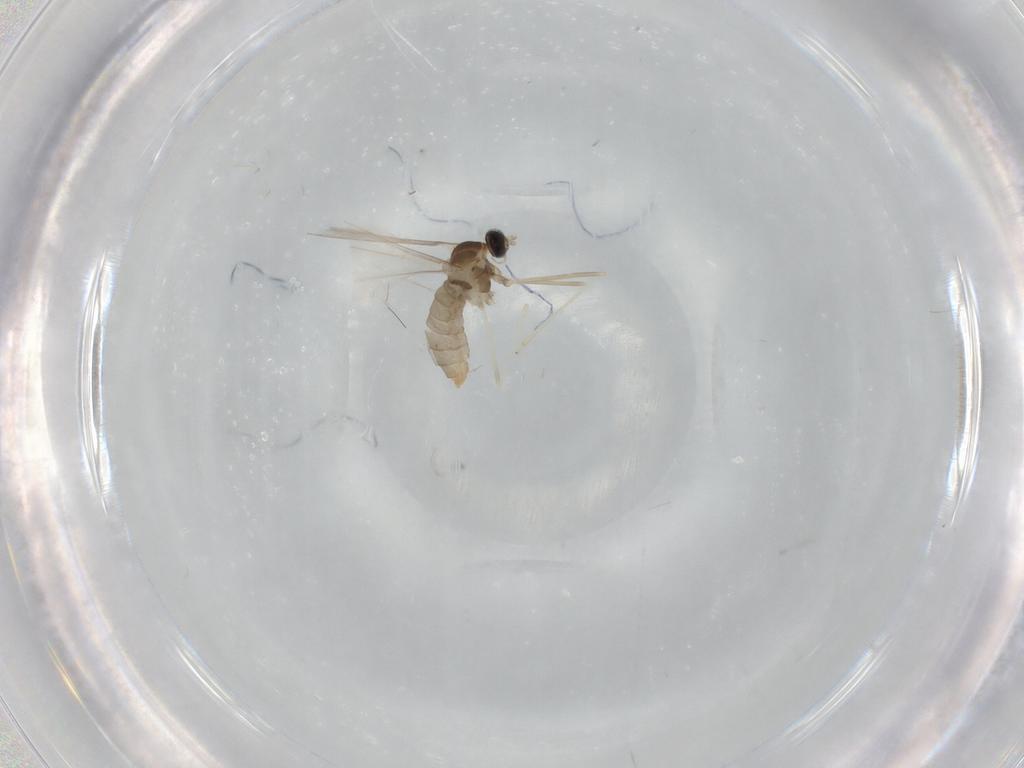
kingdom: Animalia
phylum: Arthropoda
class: Insecta
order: Diptera
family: Cecidomyiidae
